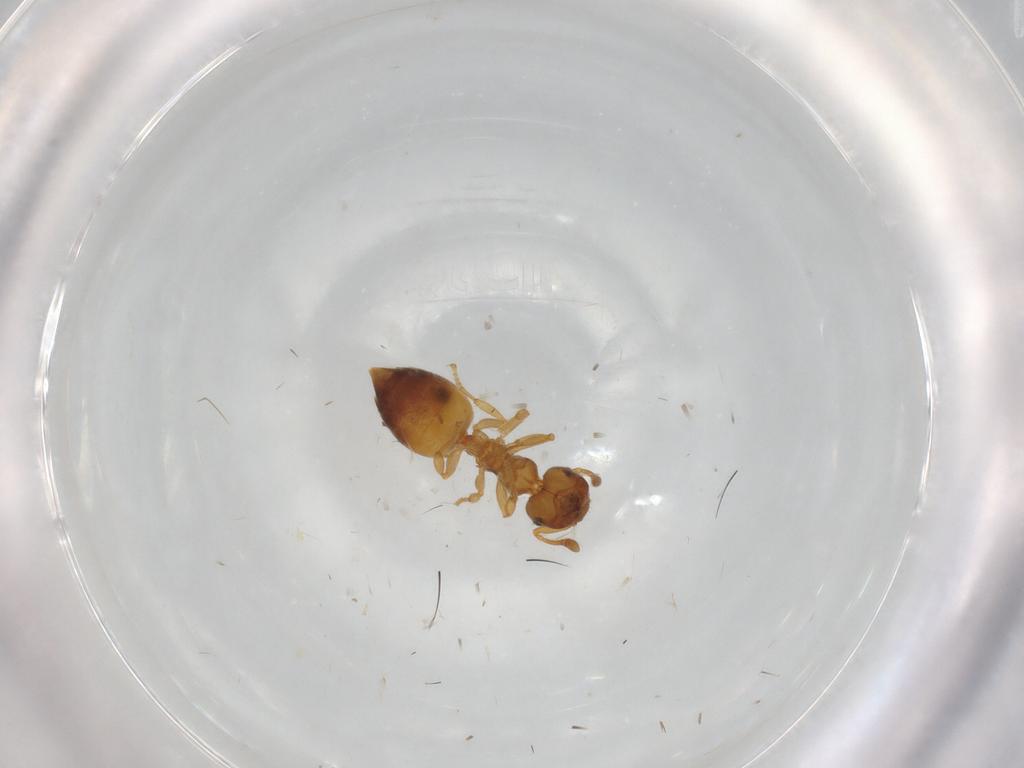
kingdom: Animalia
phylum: Arthropoda
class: Insecta
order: Hymenoptera
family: Formicidae
